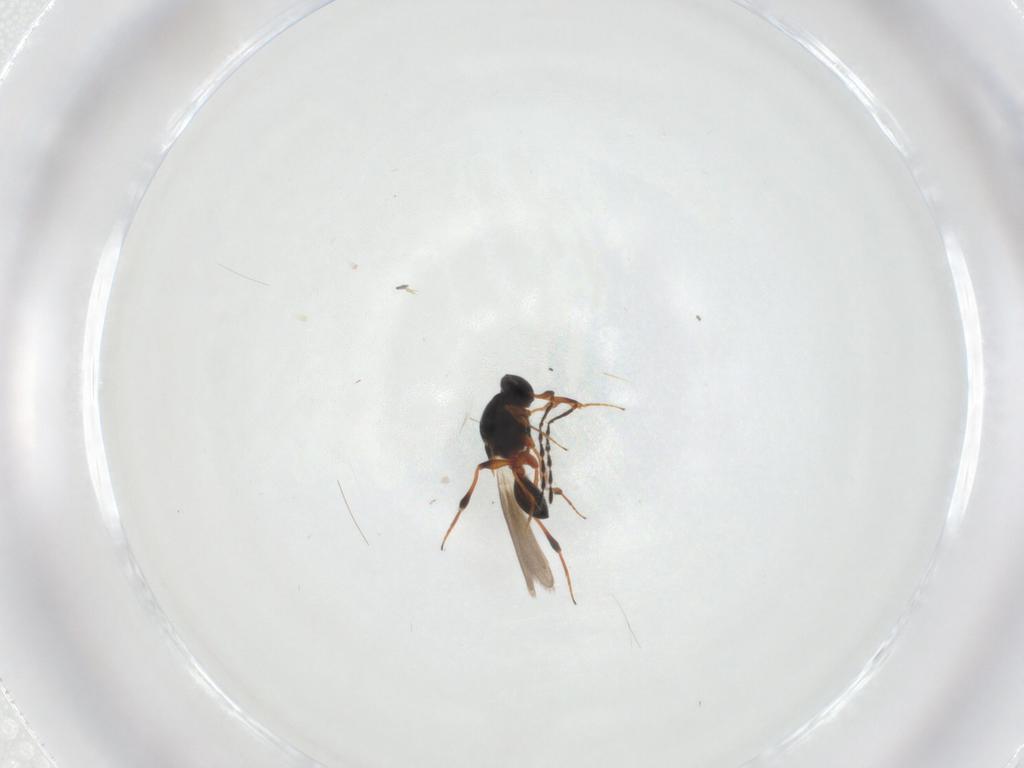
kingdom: Animalia
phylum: Arthropoda
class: Insecta
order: Hymenoptera
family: Platygastridae
